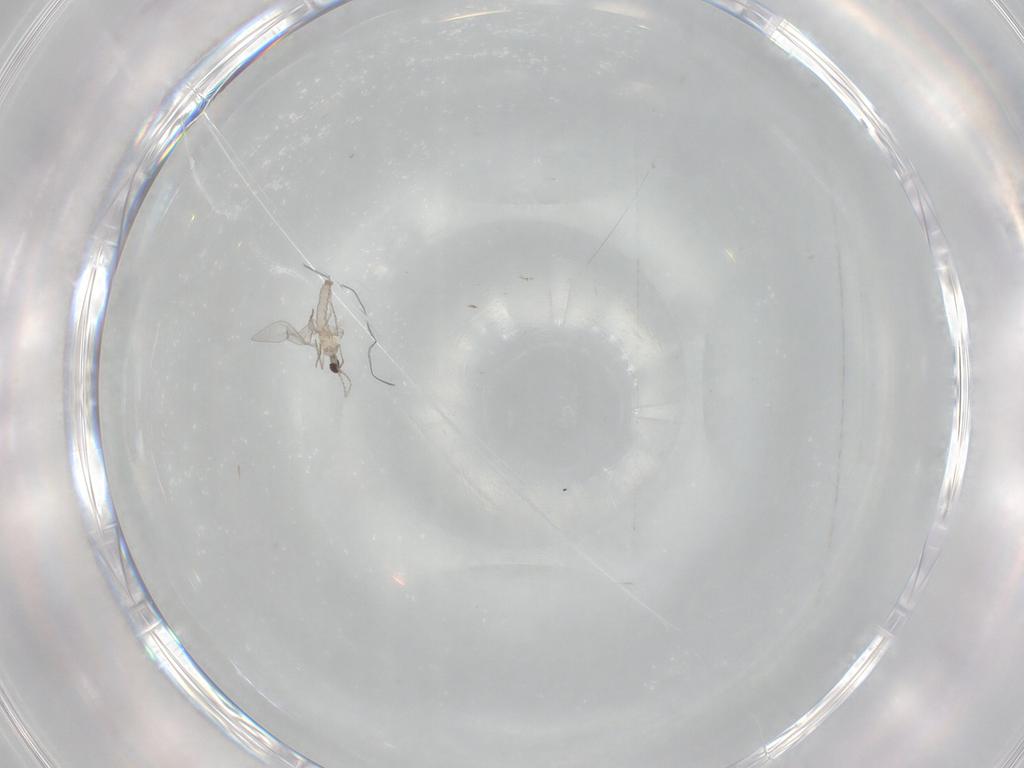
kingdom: Animalia
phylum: Arthropoda
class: Insecta
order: Diptera
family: Cecidomyiidae
